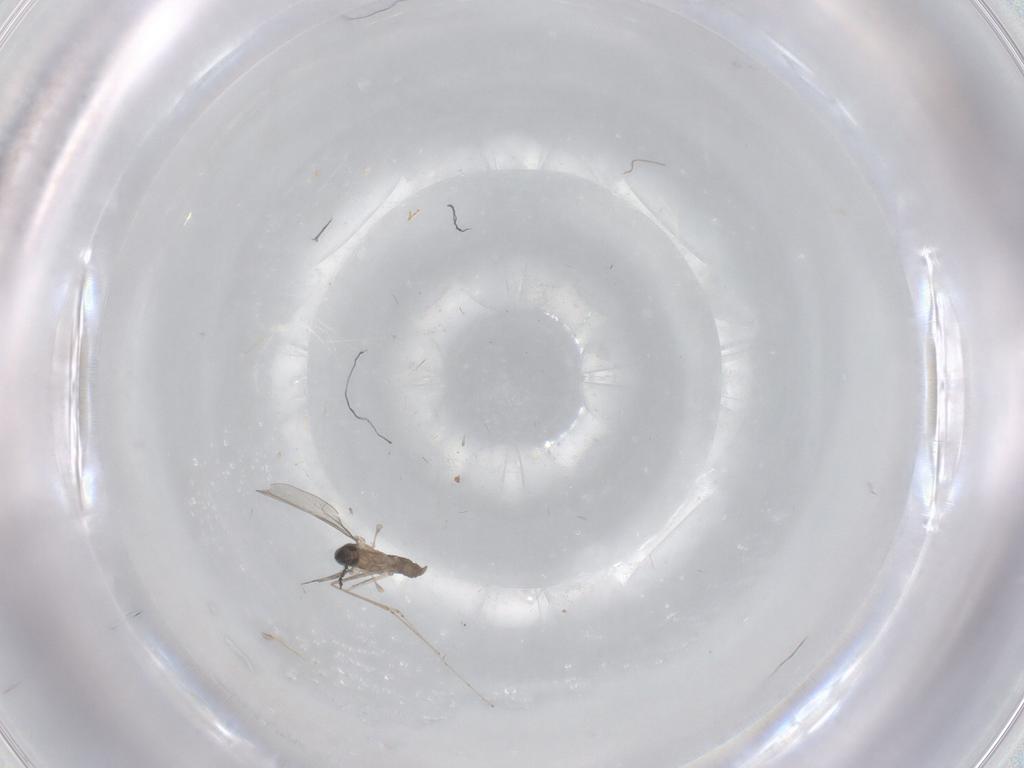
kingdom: Animalia
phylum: Arthropoda
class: Insecta
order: Diptera
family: Cecidomyiidae
